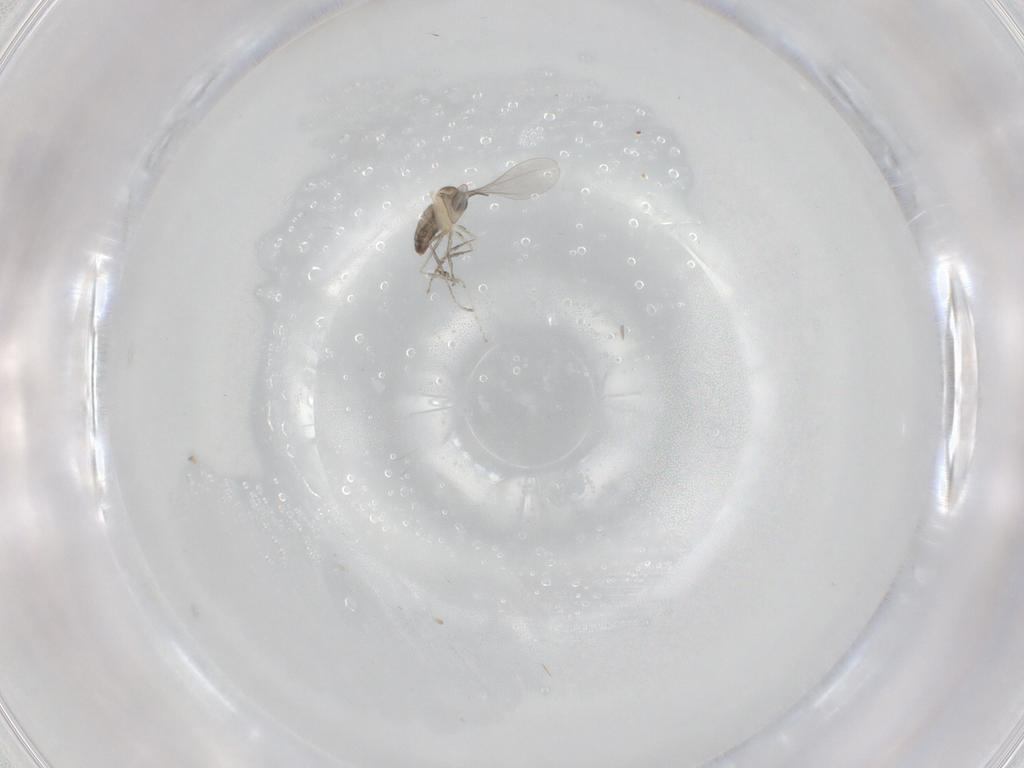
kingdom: Animalia
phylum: Arthropoda
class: Insecta
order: Diptera
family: Cecidomyiidae
